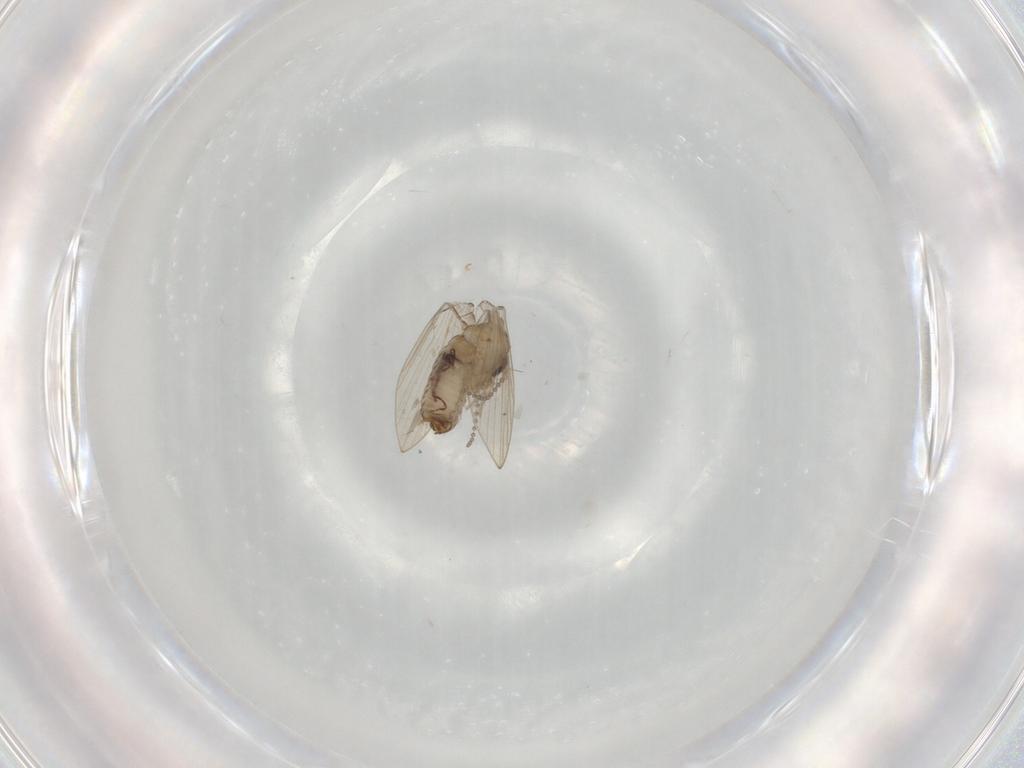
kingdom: Animalia
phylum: Arthropoda
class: Insecta
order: Diptera
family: Psychodidae
